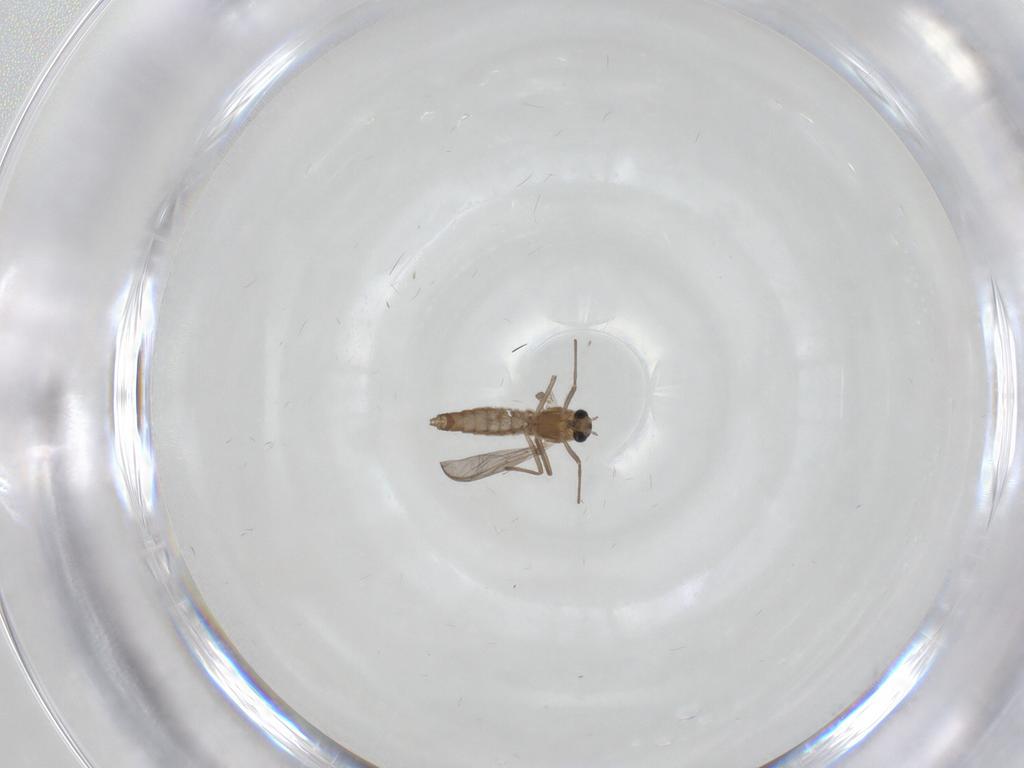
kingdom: Animalia
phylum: Arthropoda
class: Insecta
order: Diptera
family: Chironomidae
